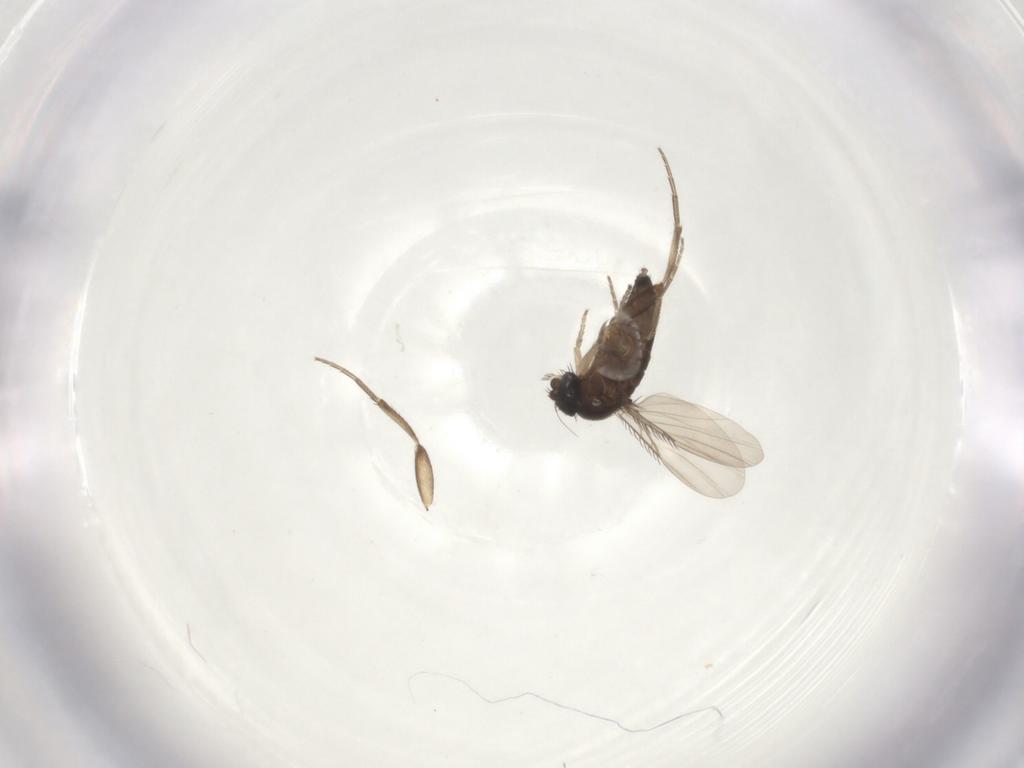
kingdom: Animalia
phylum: Arthropoda
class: Insecta
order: Diptera
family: Phoridae
